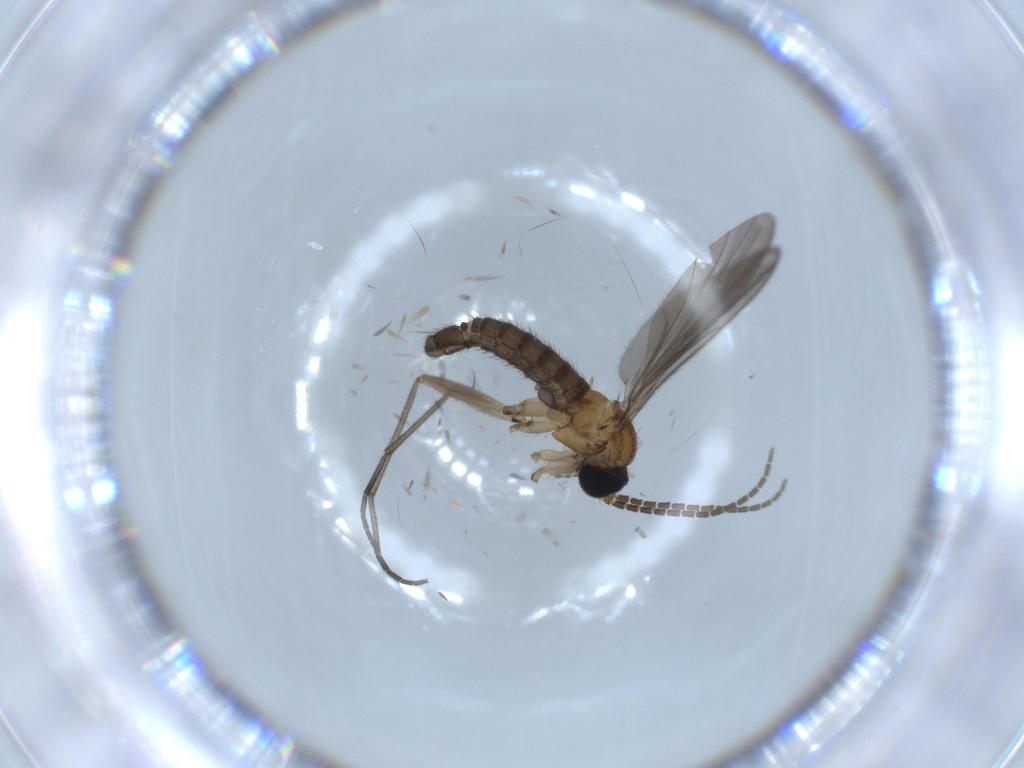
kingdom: Animalia
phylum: Arthropoda
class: Insecta
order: Diptera
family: Sciaridae
